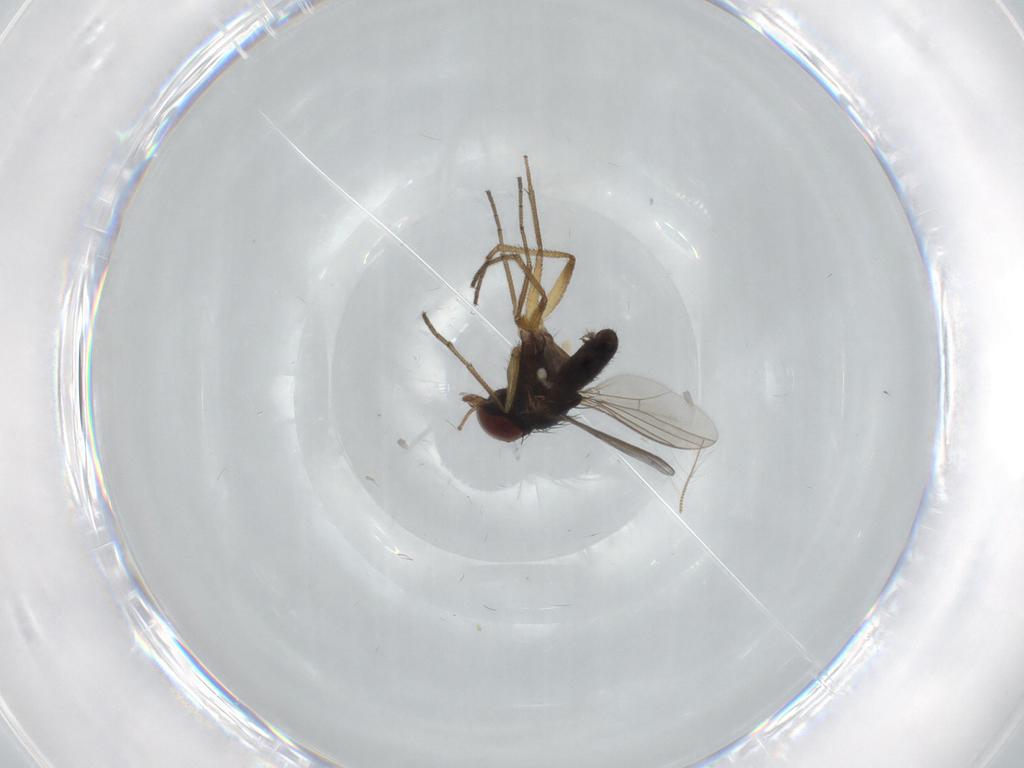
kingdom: Animalia
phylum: Arthropoda
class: Insecta
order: Diptera
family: Dolichopodidae
